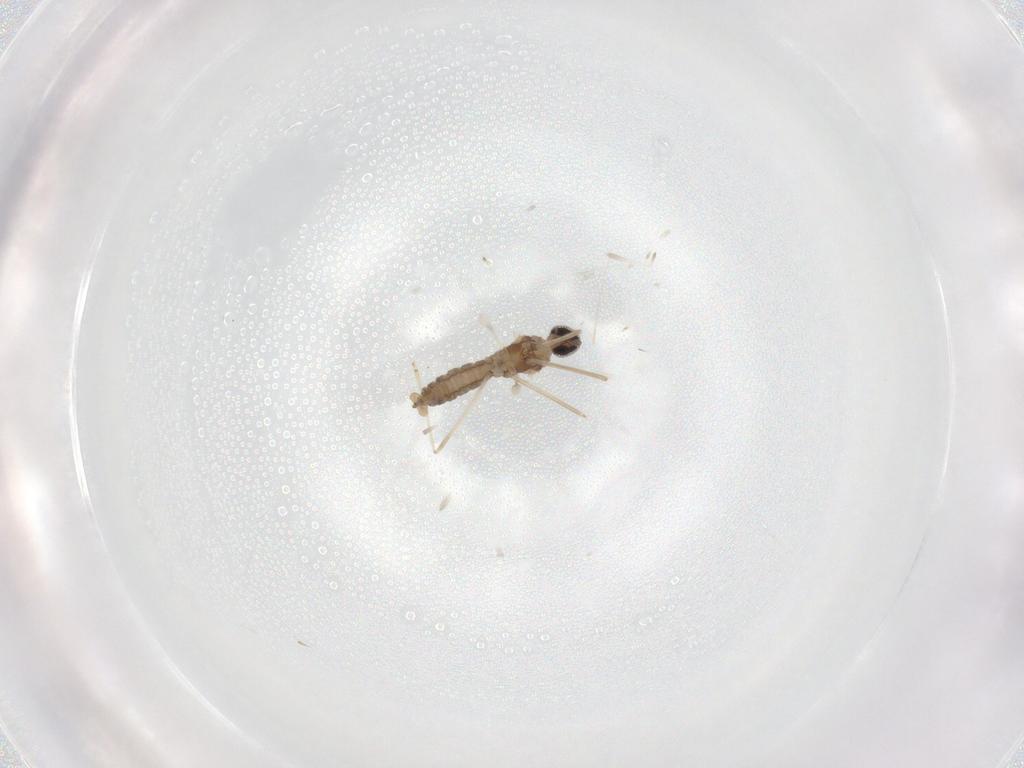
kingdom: Animalia
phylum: Arthropoda
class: Insecta
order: Diptera
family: Cecidomyiidae
